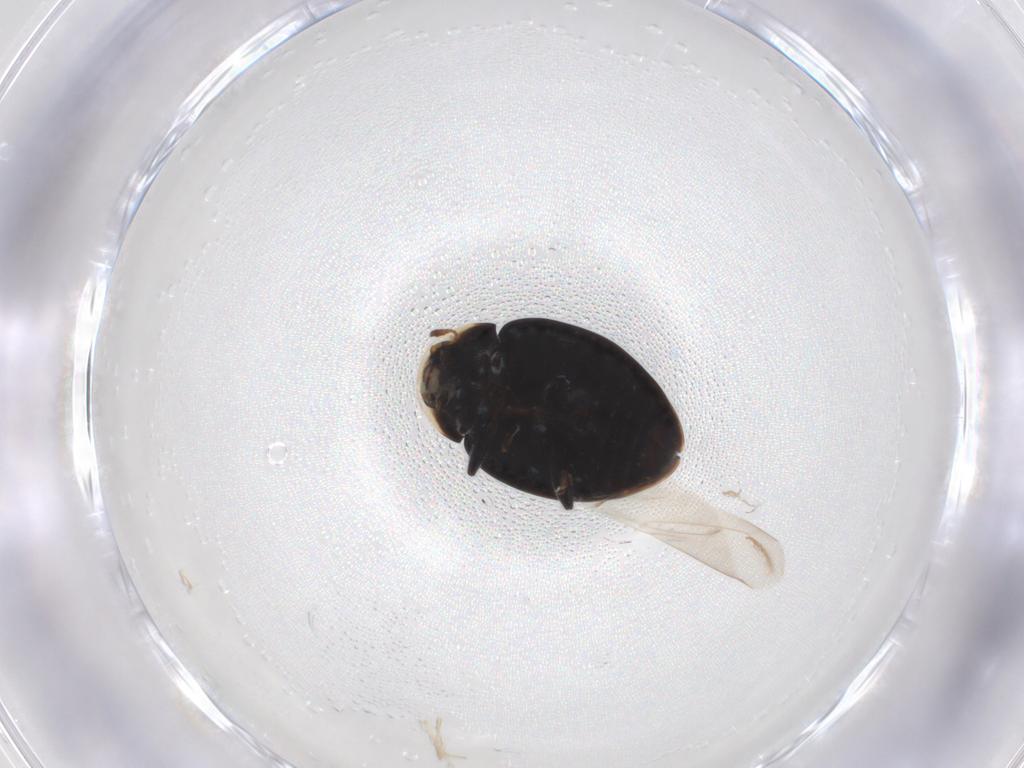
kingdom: Animalia
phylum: Arthropoda
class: Insecta
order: Coleoptera
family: Coccinellidae
